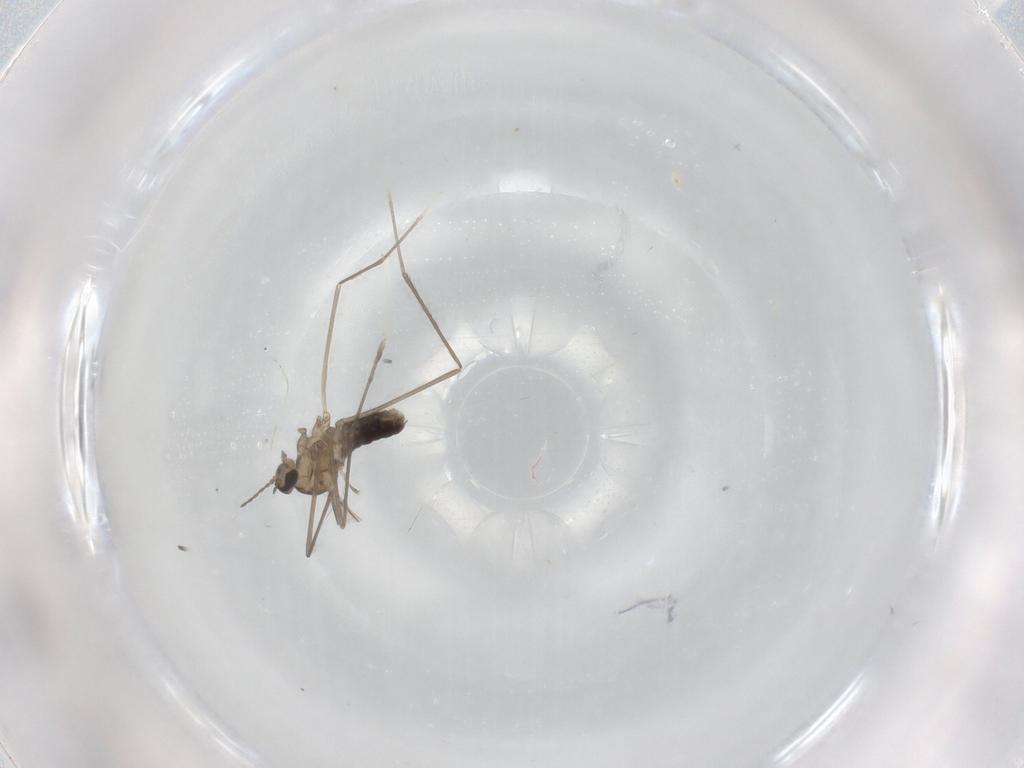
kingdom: Animalia
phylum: Arthropoda
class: Insecta
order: Diptera
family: Cecidomyiidae
